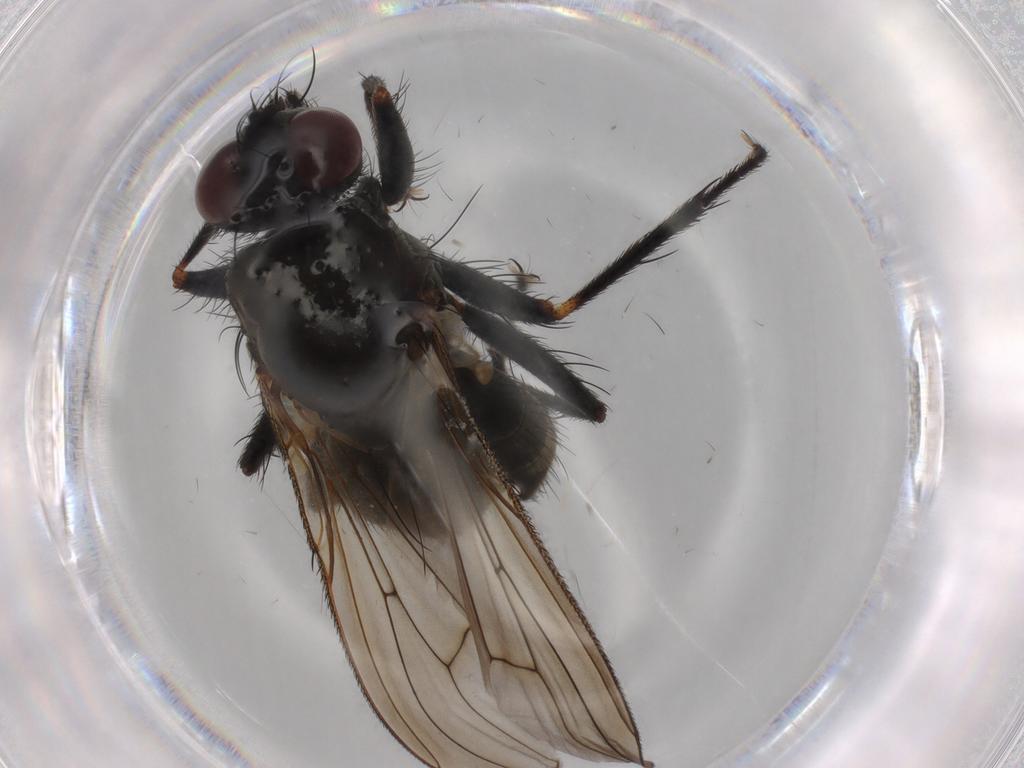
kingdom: Animalia
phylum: Arthropoda
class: Insecta
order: Diptera
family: Muscidae
